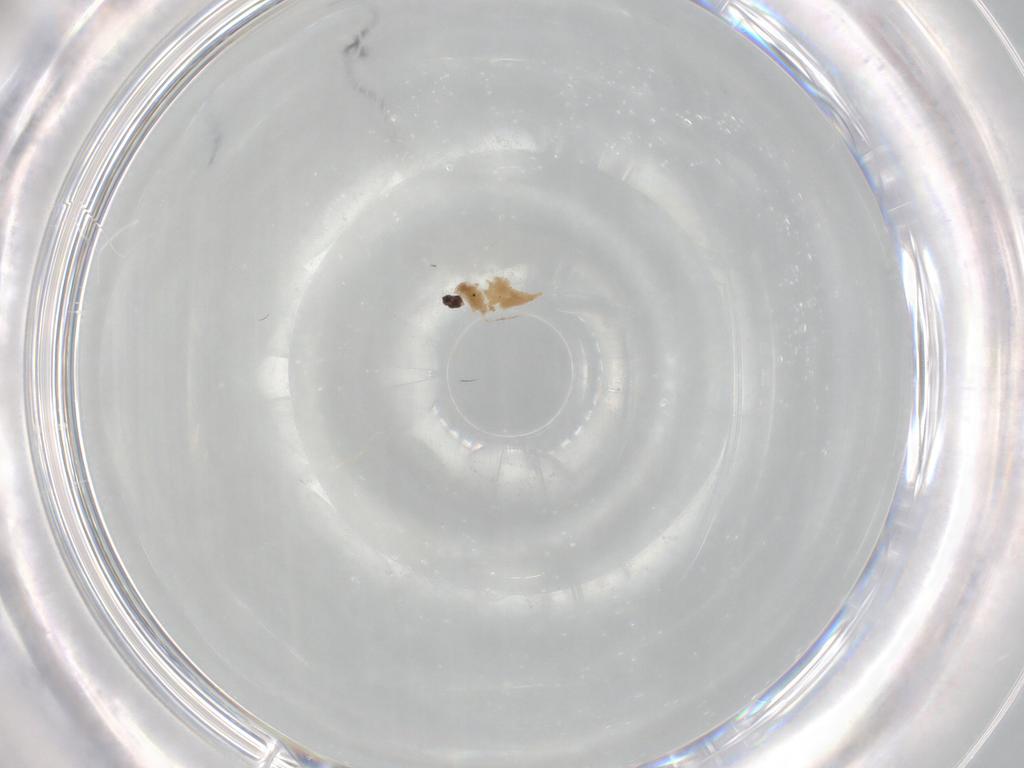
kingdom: Animalia
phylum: Arthropoda
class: Insecta
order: Diptera
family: Cecidomyiidae
